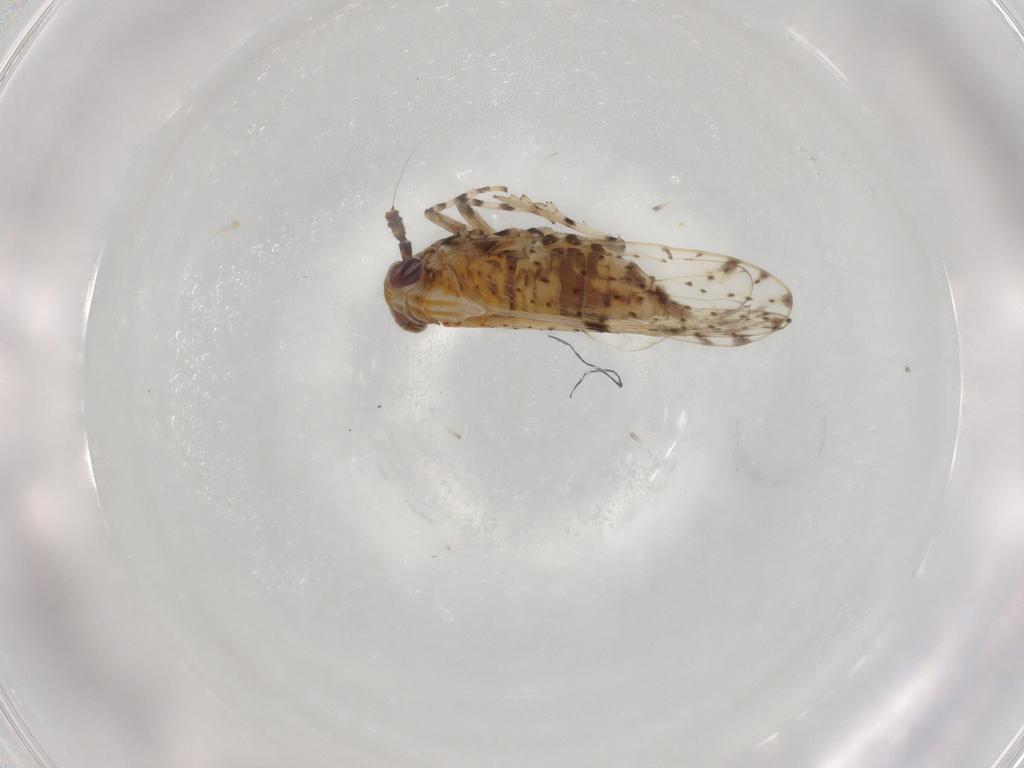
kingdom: Animalia
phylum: Arthropoda
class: Insecta
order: Hemiptera
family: Delphacidae
